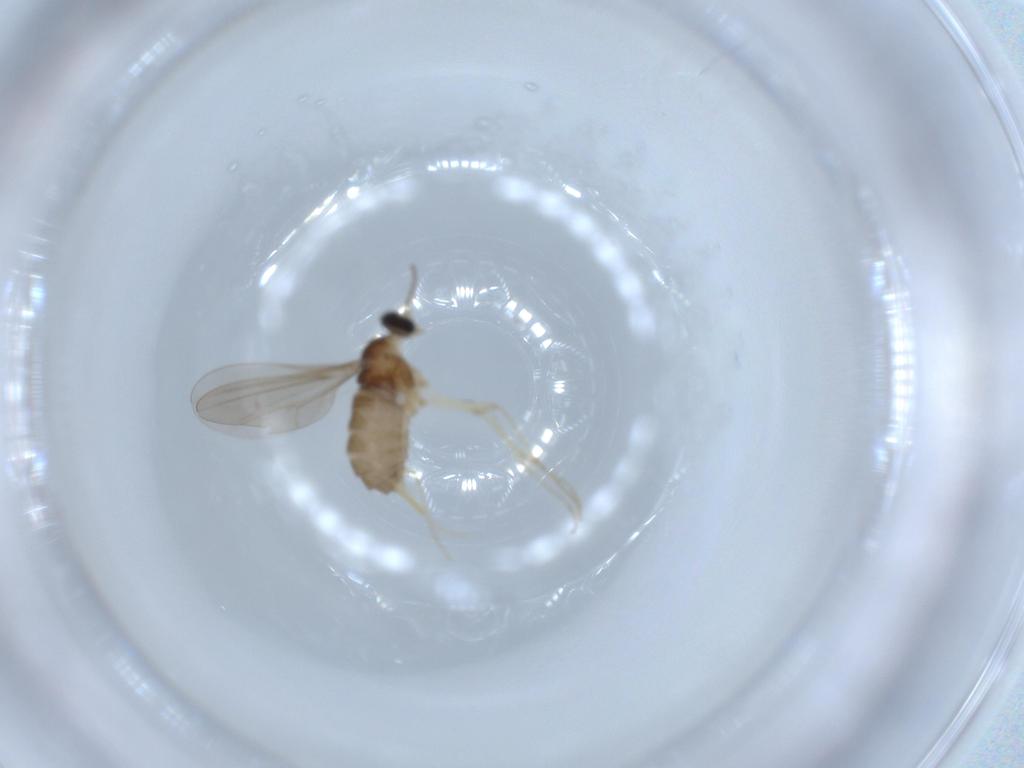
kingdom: Animalia
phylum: Arthropoda
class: Insecta
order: Diptera
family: Cecidomyiidae
